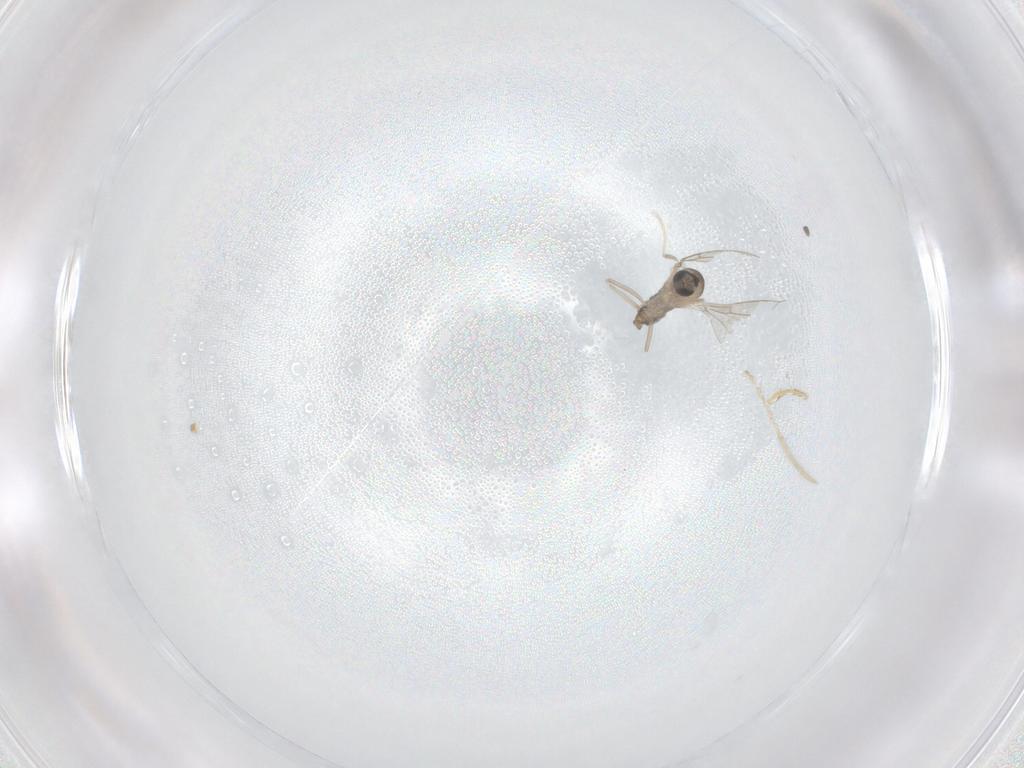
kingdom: Animalia
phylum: Arthropoda
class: Insecta
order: Diptera
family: Cecidomyiidae
